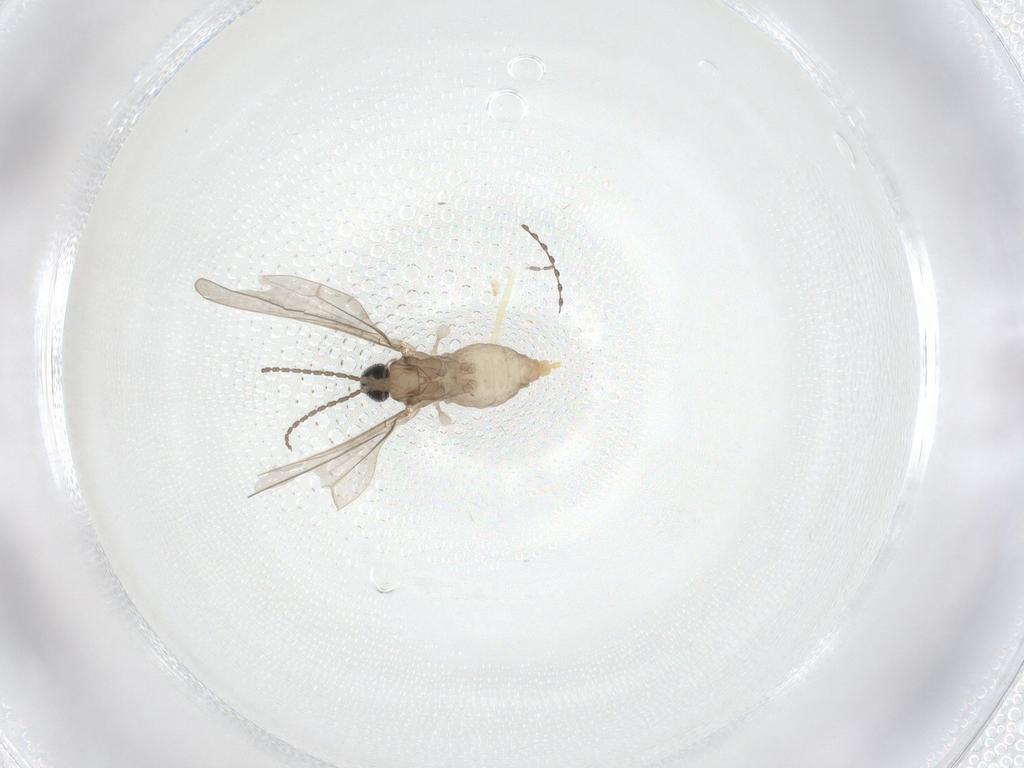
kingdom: Animalia
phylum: Arthropoda
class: Insecta
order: Diptera
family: Cecidomyiidae
